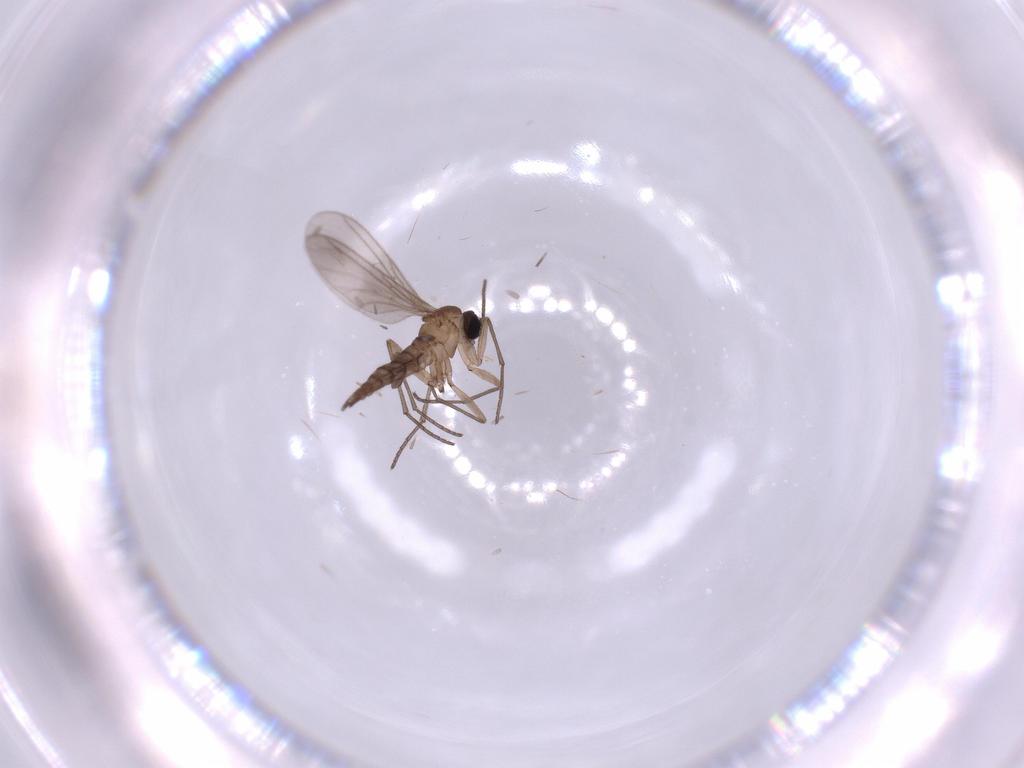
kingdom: Animalia
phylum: Arthropoda
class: Insecta
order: Diptera
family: Sciaridae
